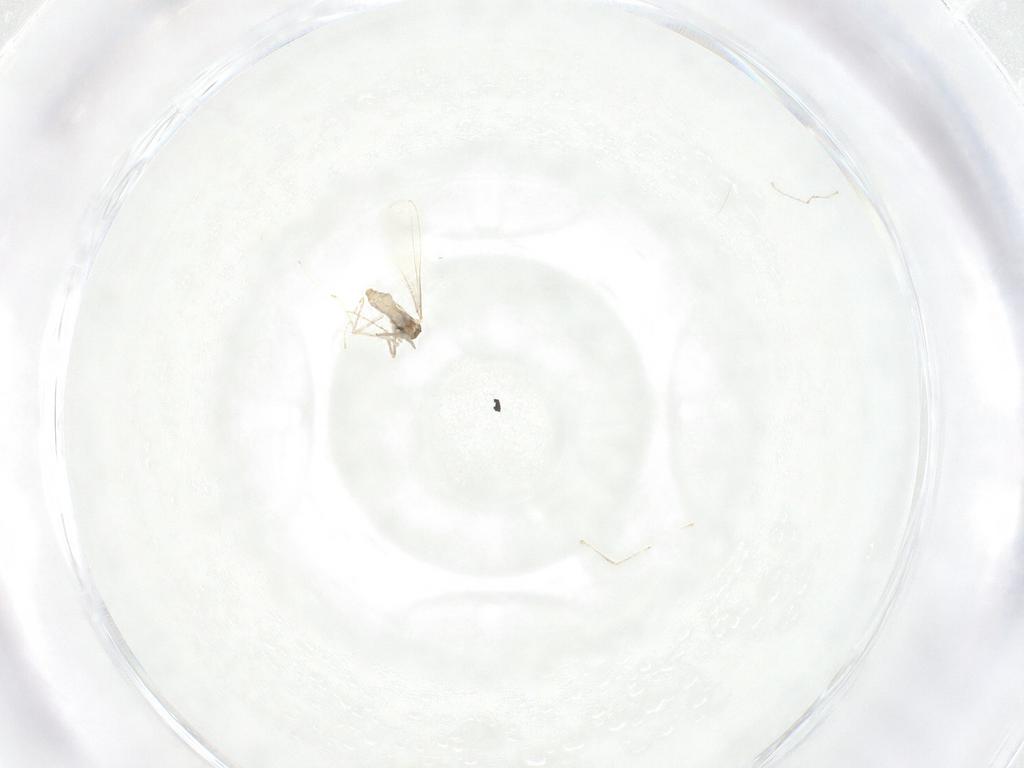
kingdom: Animalia
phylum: Arthropoda
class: Insecta
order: Diptera
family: Cecidomyiidae
